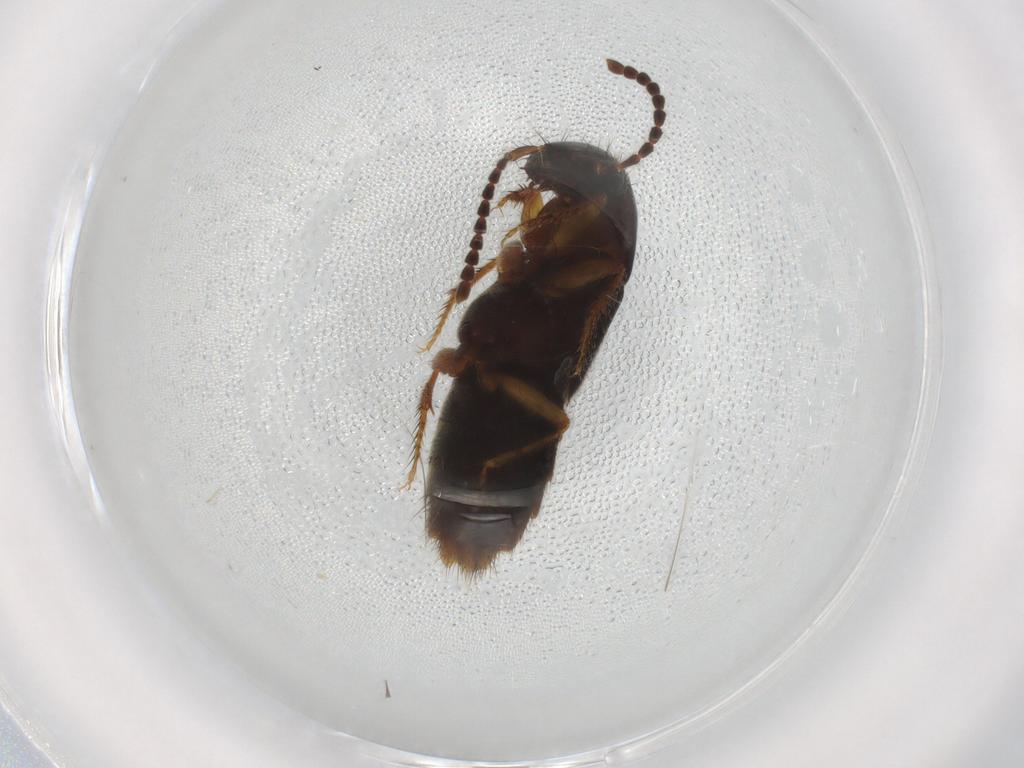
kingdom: Animalia
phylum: Arthropoda
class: Insecta
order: Coleoptera
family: Staphylinidae
